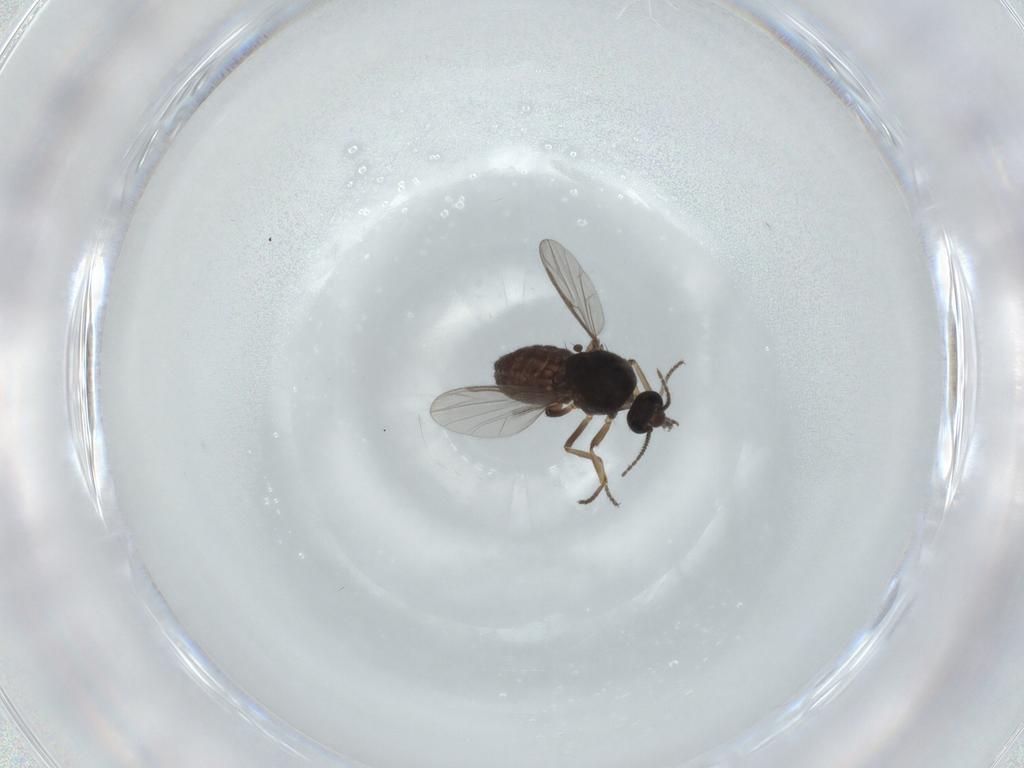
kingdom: Animalia
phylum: Arthropoda
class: Insecta
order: Diptera
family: Ceratopogonidae
